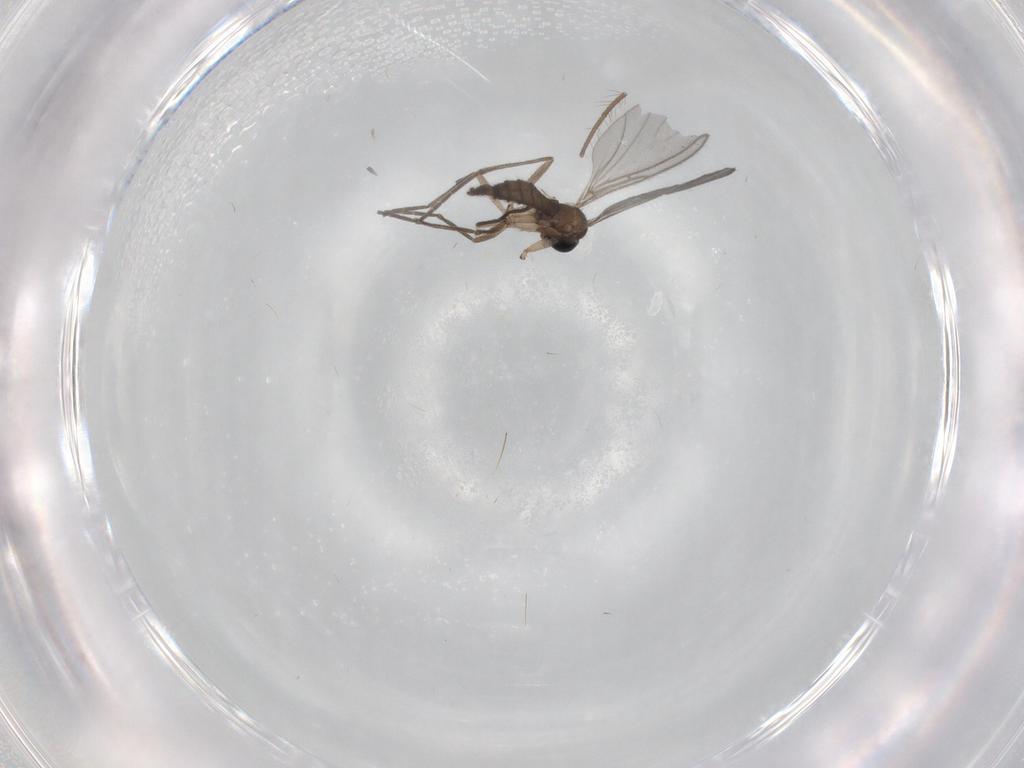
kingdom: Animalia
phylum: Arthropoda
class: Insecta
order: Diptera
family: Sciaridae
